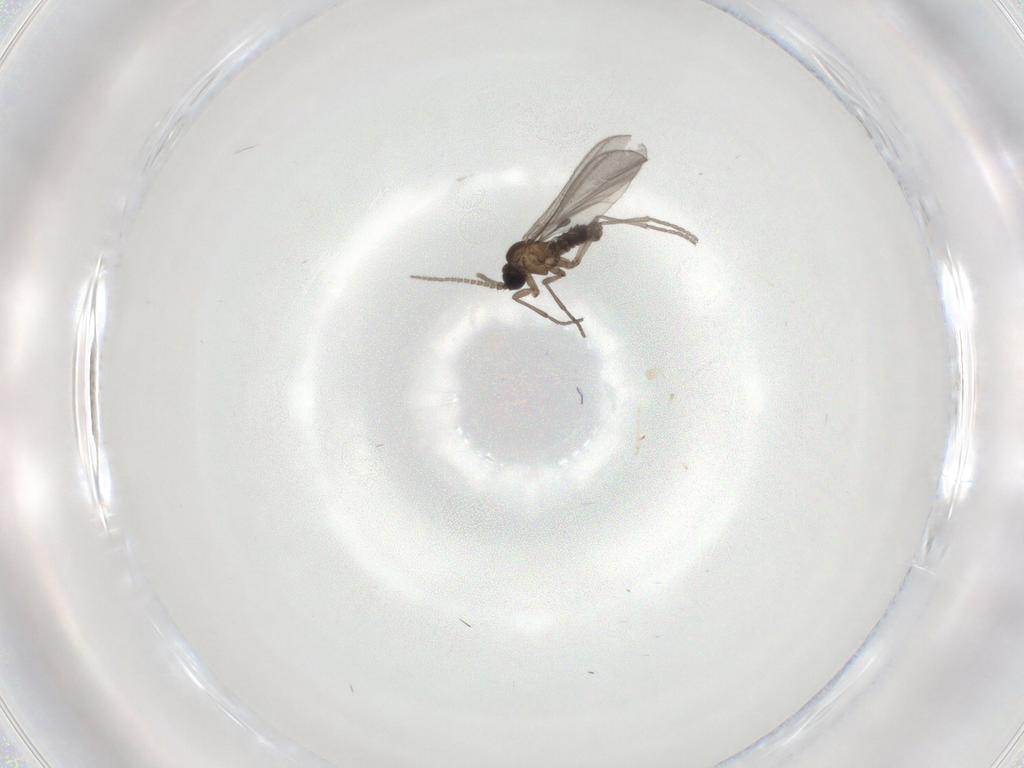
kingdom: Animalia
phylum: Arthropoda
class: Insecta
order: Diptera
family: Sciaridae
